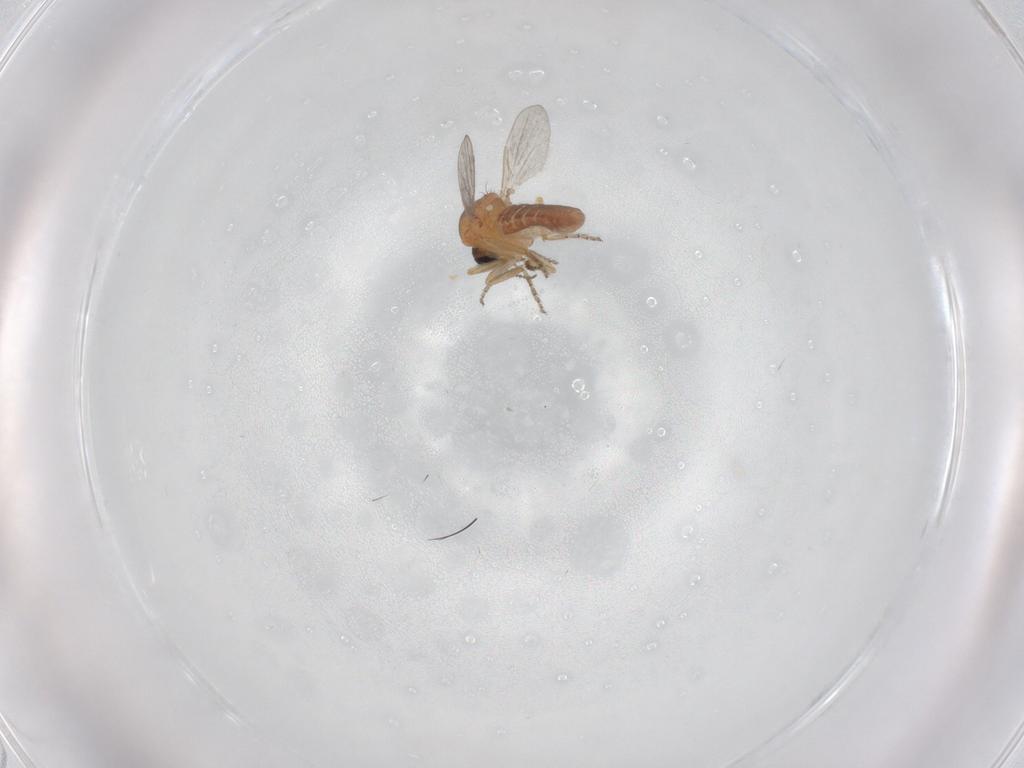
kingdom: Animalia
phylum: Arthropoda
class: Insecta
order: Diptera
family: Ceratopogonidae
